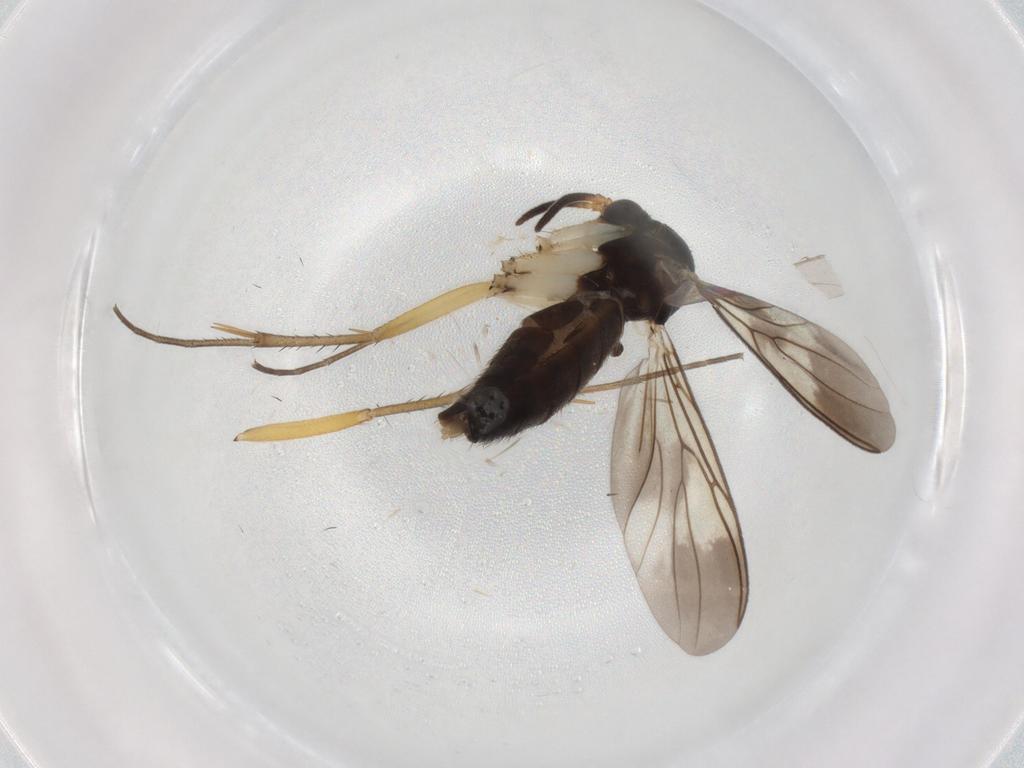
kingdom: Animalia
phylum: Arthropoda
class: Insecta
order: Diptera
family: Cecidomyiidae
